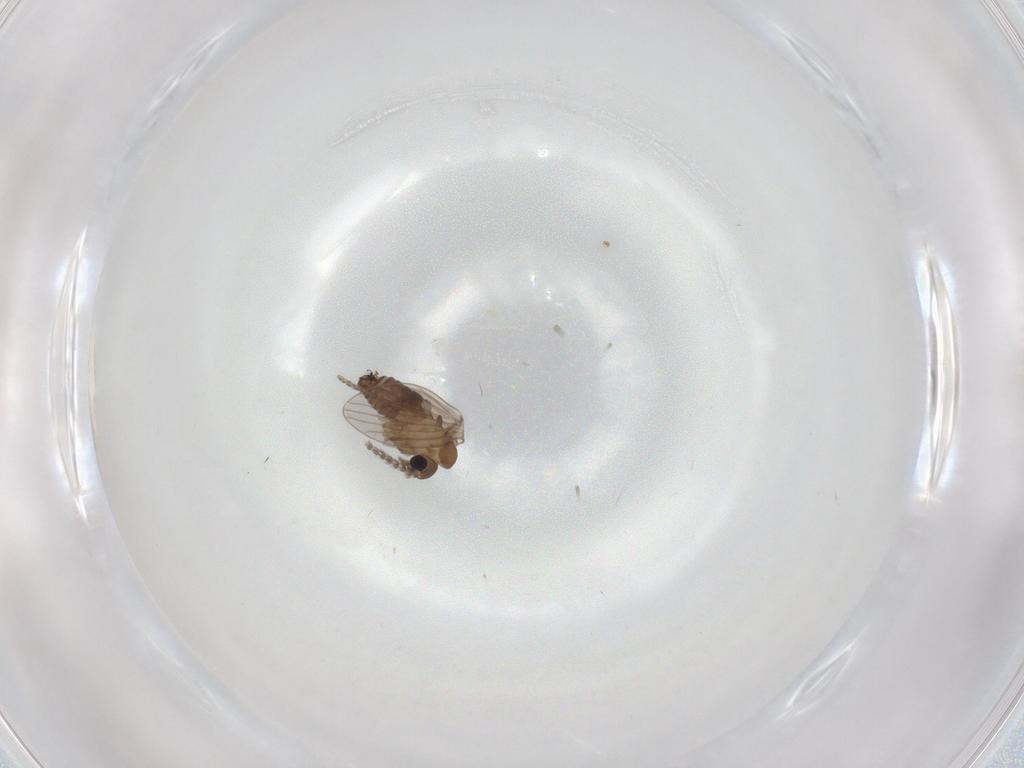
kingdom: Animalia
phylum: Arthropoda
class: Insecta
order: Diptera
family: Psychodidae
